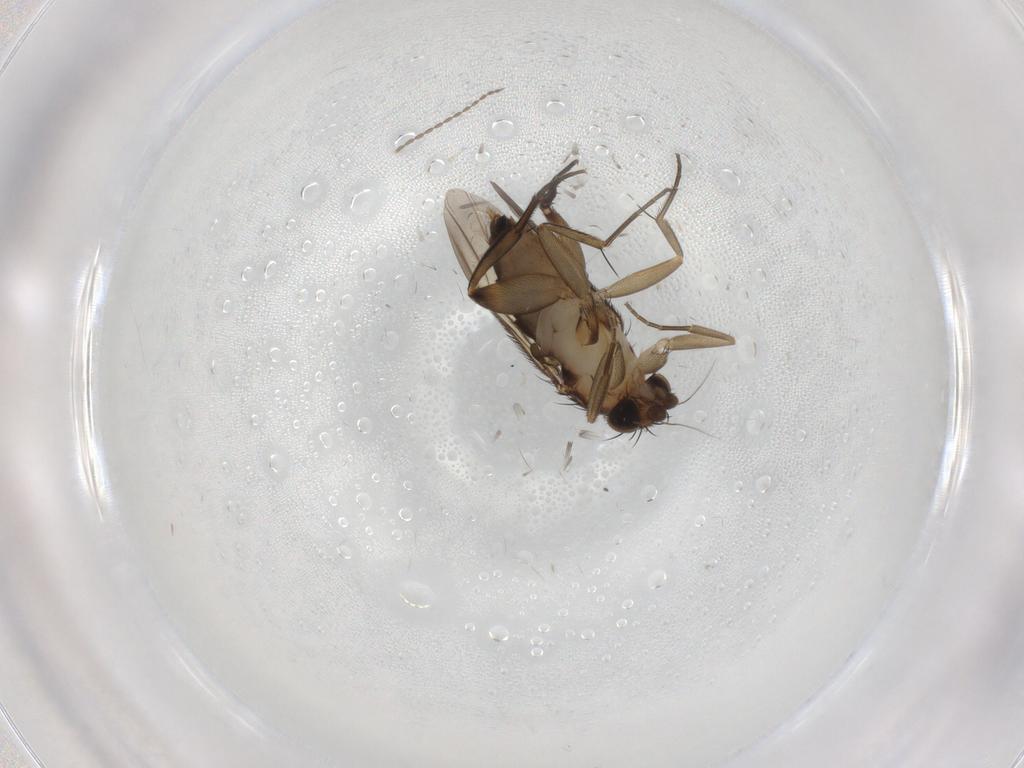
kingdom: Animalia
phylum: Arthropoda
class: Insecta
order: Diptera
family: Phoridae
